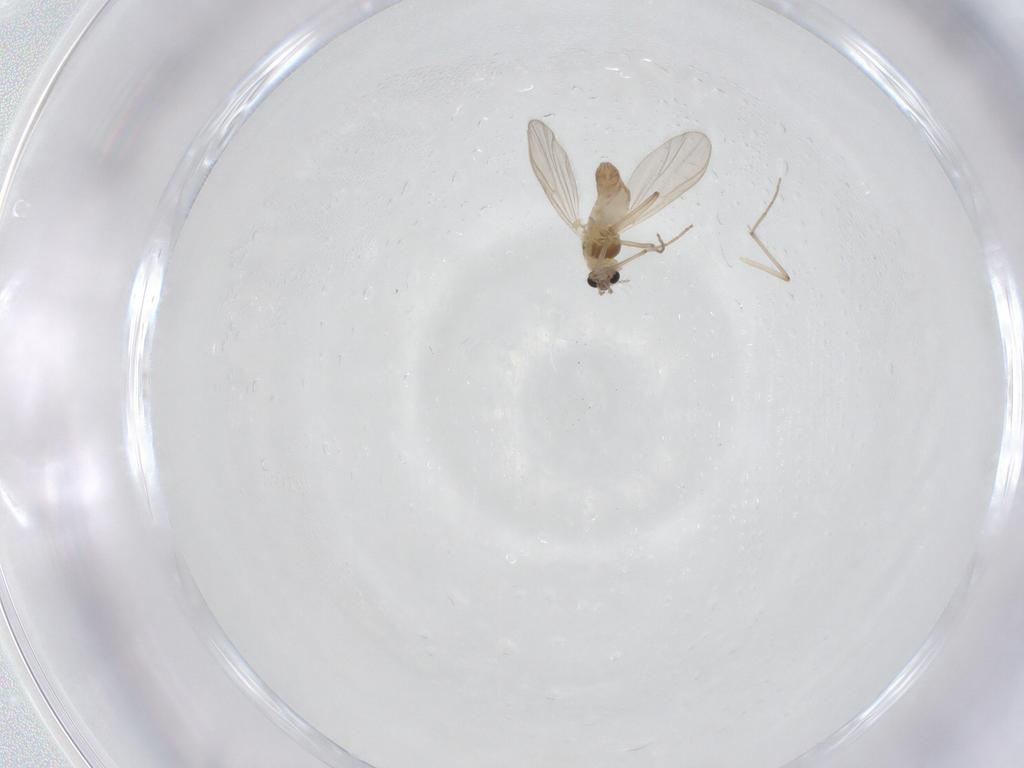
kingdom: Animalia
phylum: Arthropoda
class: Insecta
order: Diptera
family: Chironomidae
